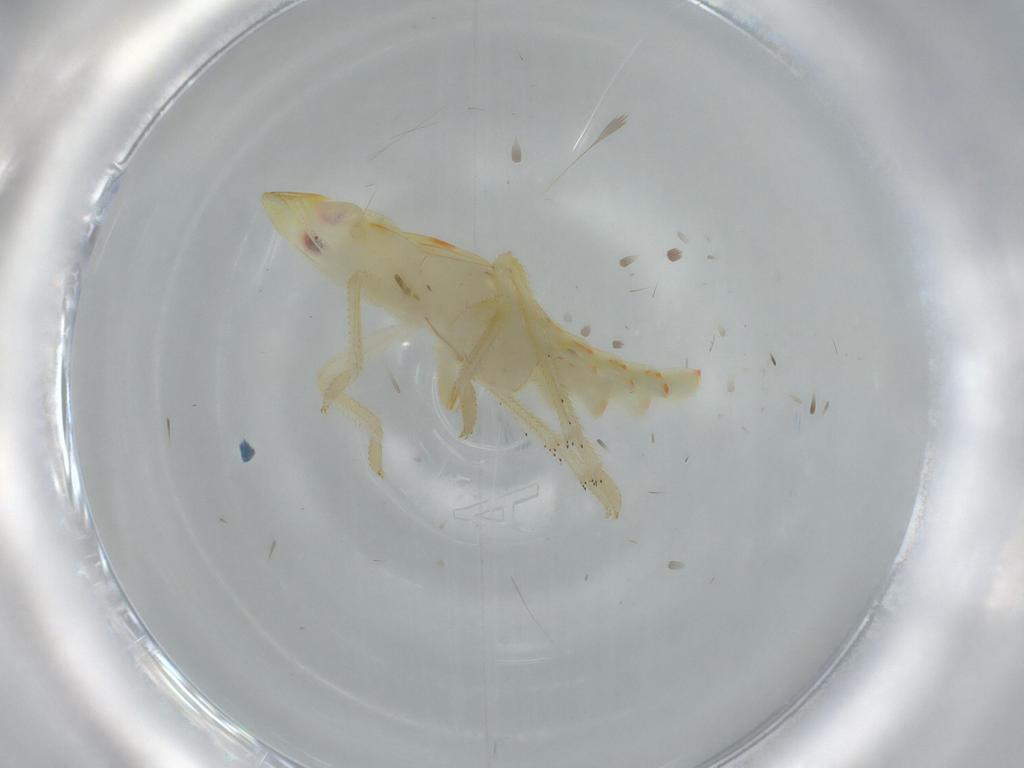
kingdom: Animalia
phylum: Arthropoda
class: Insecta
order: Hemiptera
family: Tropiduchidae
